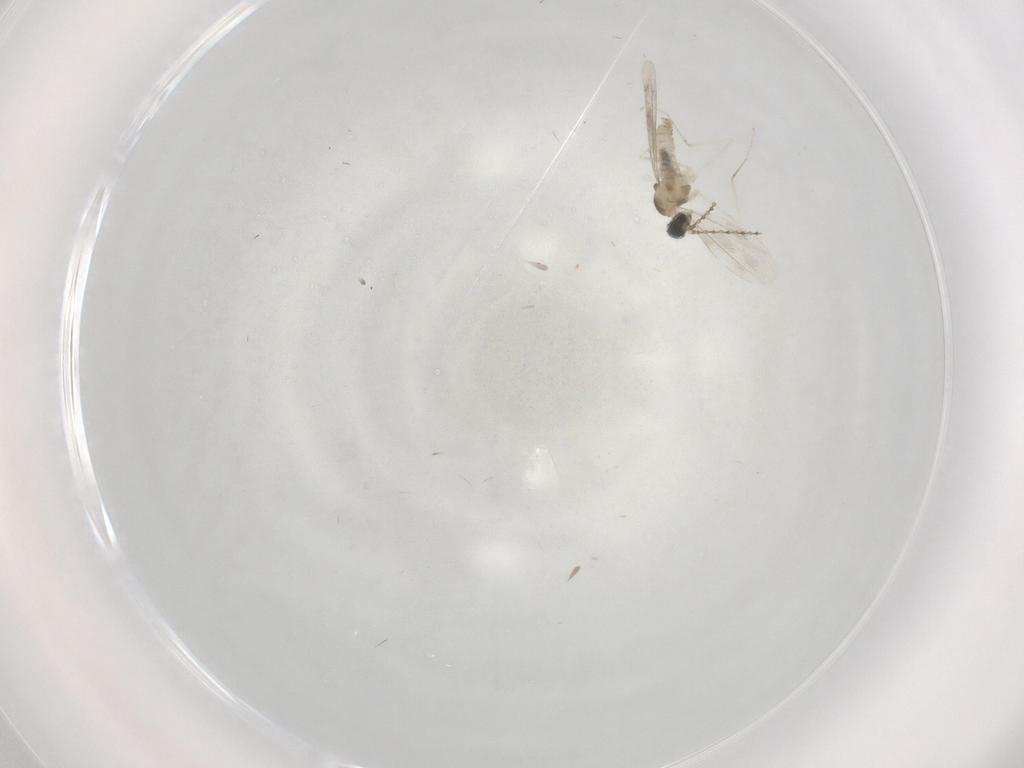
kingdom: Animalia
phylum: Arthropoda
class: Insecta
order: Diptera
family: Cecidomyiidae
